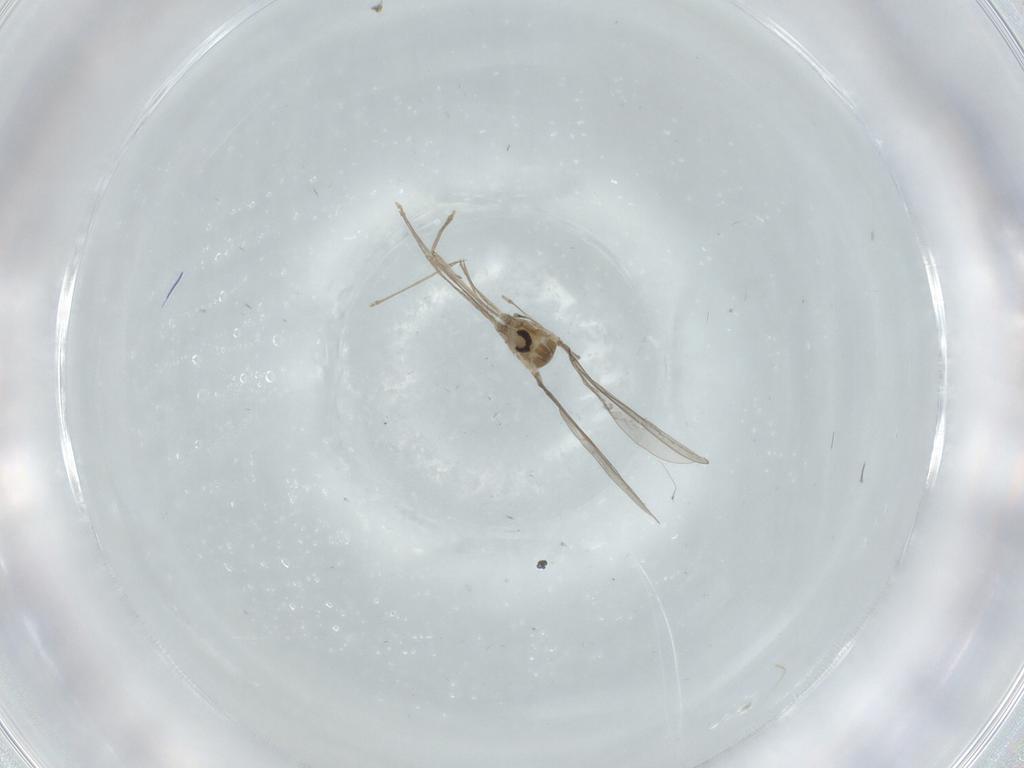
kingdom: Animalia
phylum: Arthropoda
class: Insecta
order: Diptera
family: Cecidomyiidae
